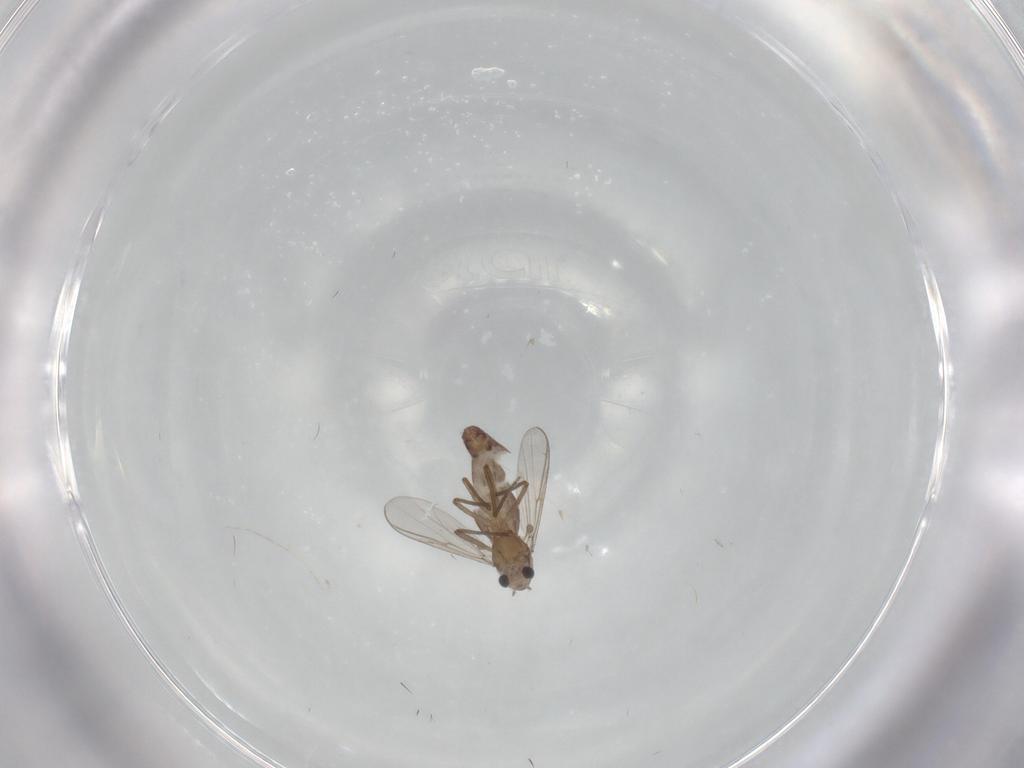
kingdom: Animalia
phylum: Arthropoda
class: Insecta
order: Diptera
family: Chironomidae
